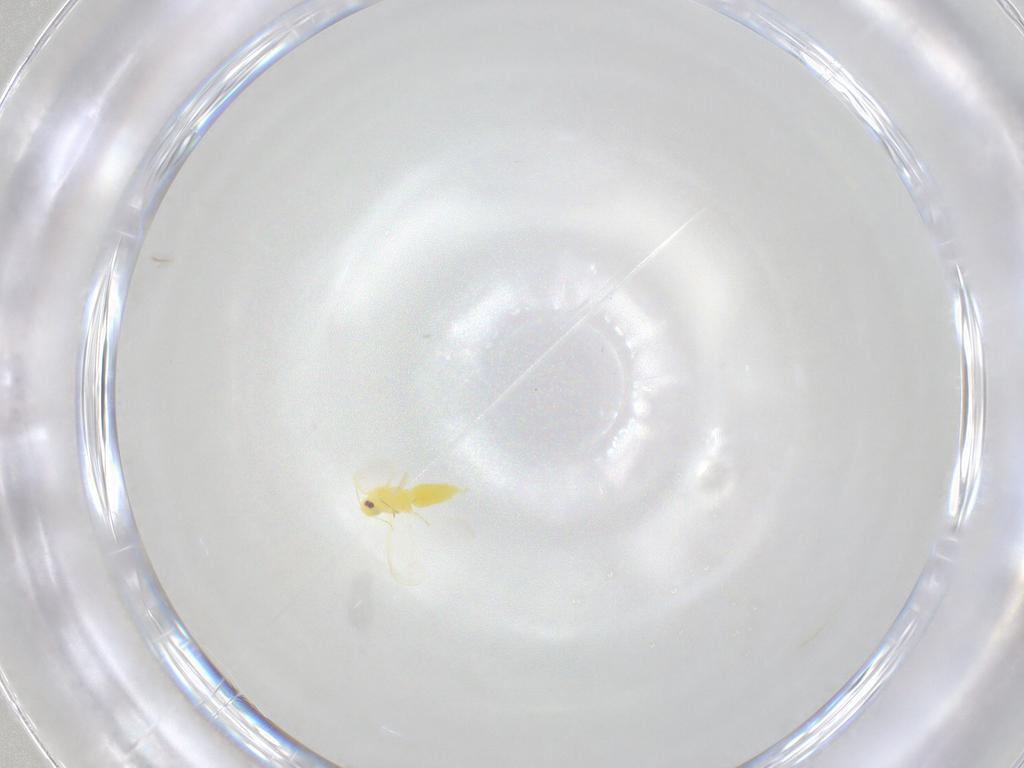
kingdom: Animalia
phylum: Arthropoda
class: Insecta
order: Hemiptera
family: Aleyrodidae
